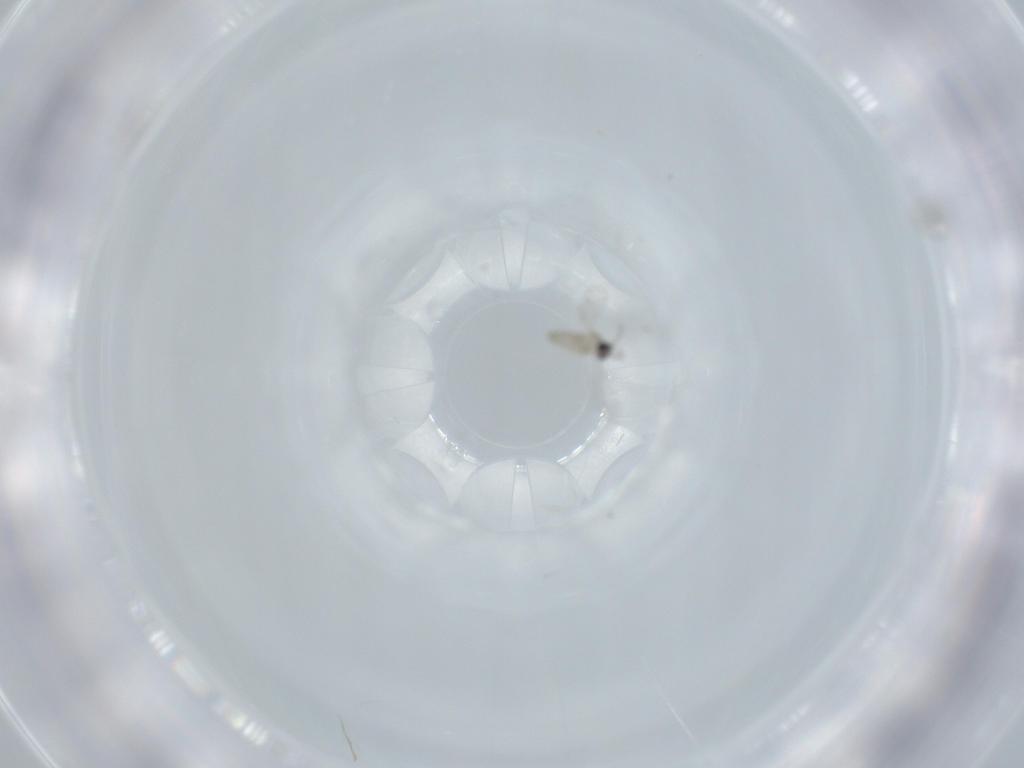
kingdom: Animalia
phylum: Arthropoda
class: Insecta
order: Diptera
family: Cecidomyiidae
